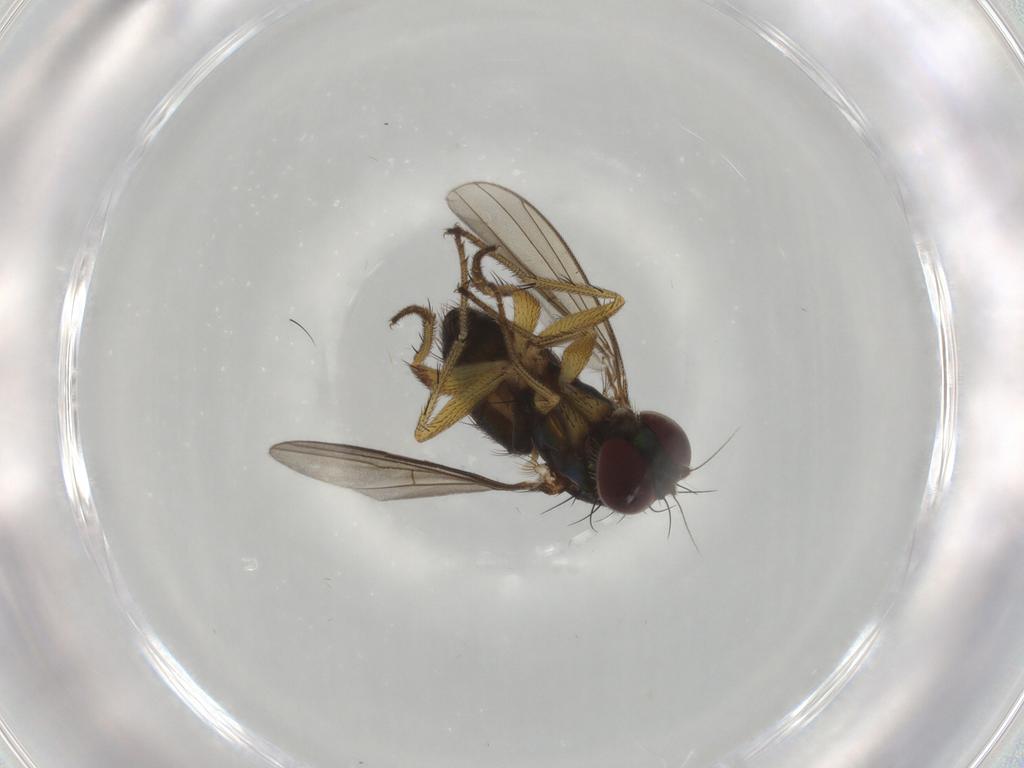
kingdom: Animalia
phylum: Arthropoda
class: Insecta
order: Diptera
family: Dolichopodidae
